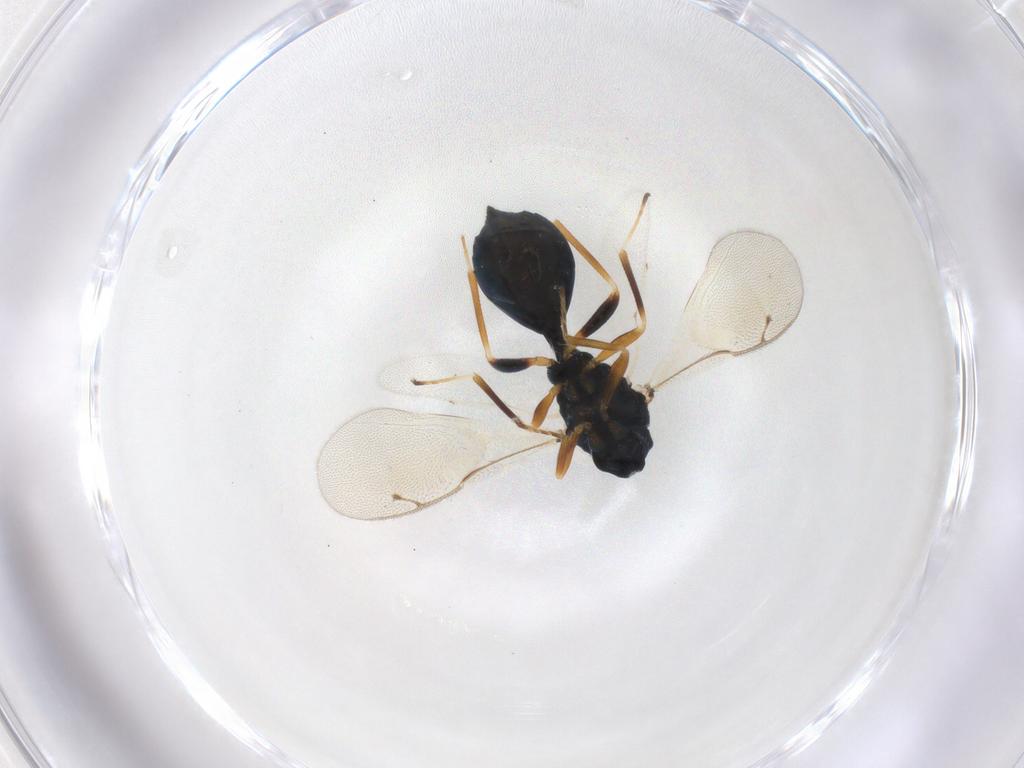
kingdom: Animalia
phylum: Arthropoda
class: Insecta
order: Hymenoptera
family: Pteromalidae
